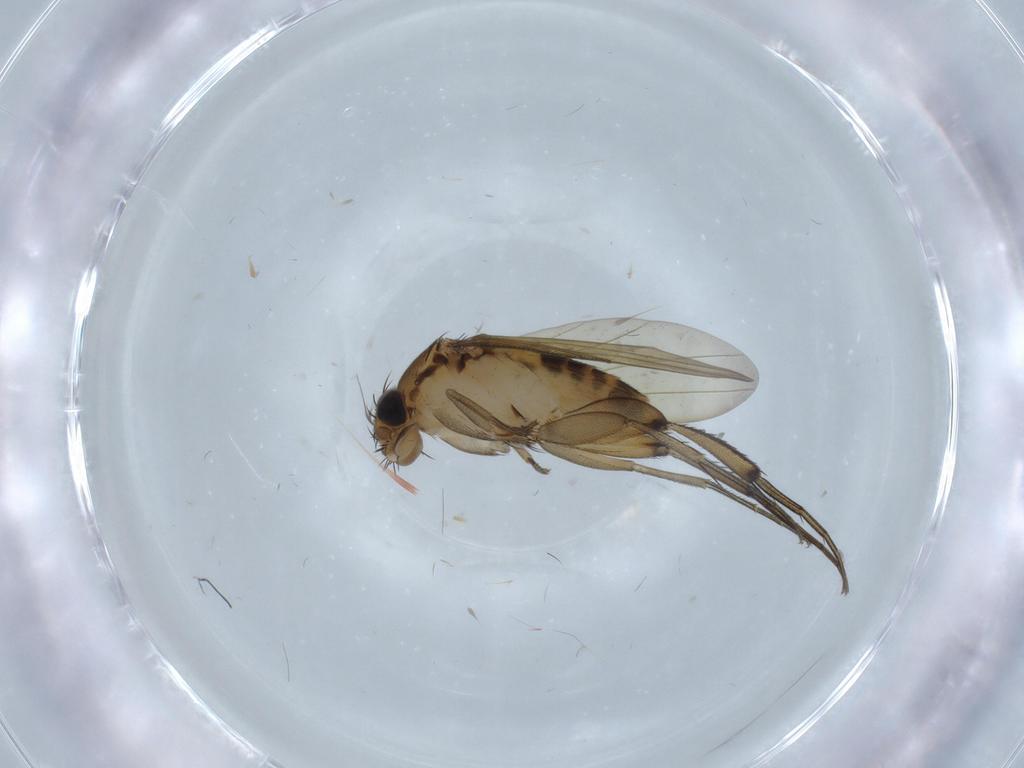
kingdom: Animalia
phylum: Arthropoda
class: Insecta
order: Diptera
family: Phoridae
